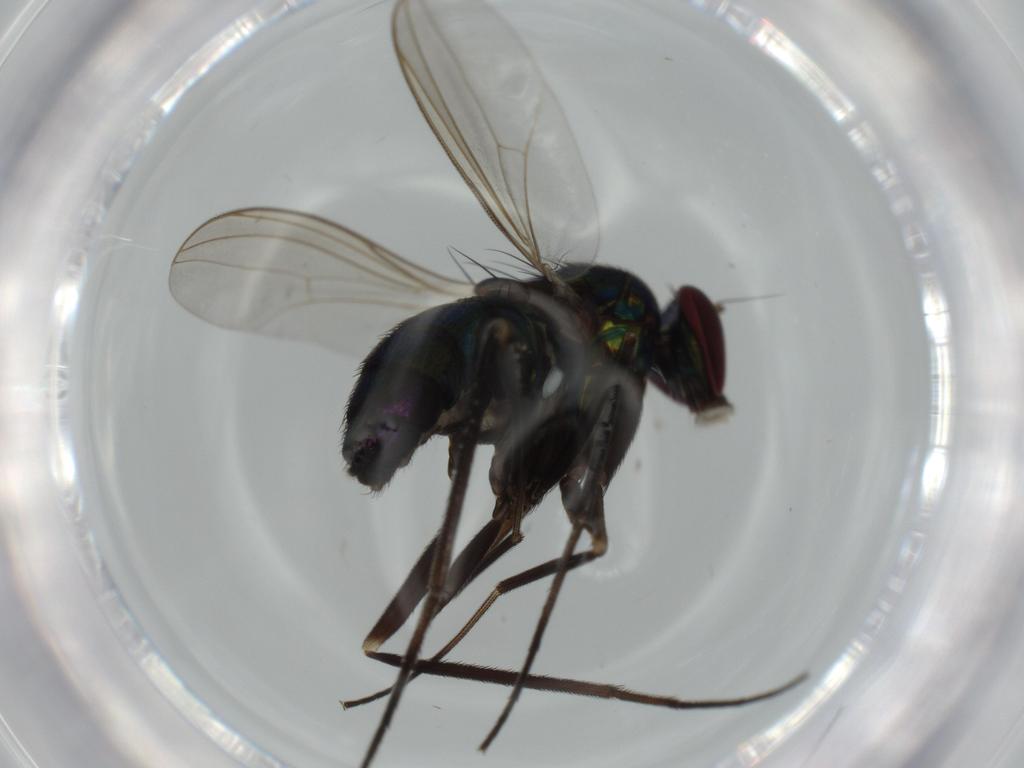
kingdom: Animalia
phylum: Arthropoda
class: Insecta
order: Diptera
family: Dolichopodidae
